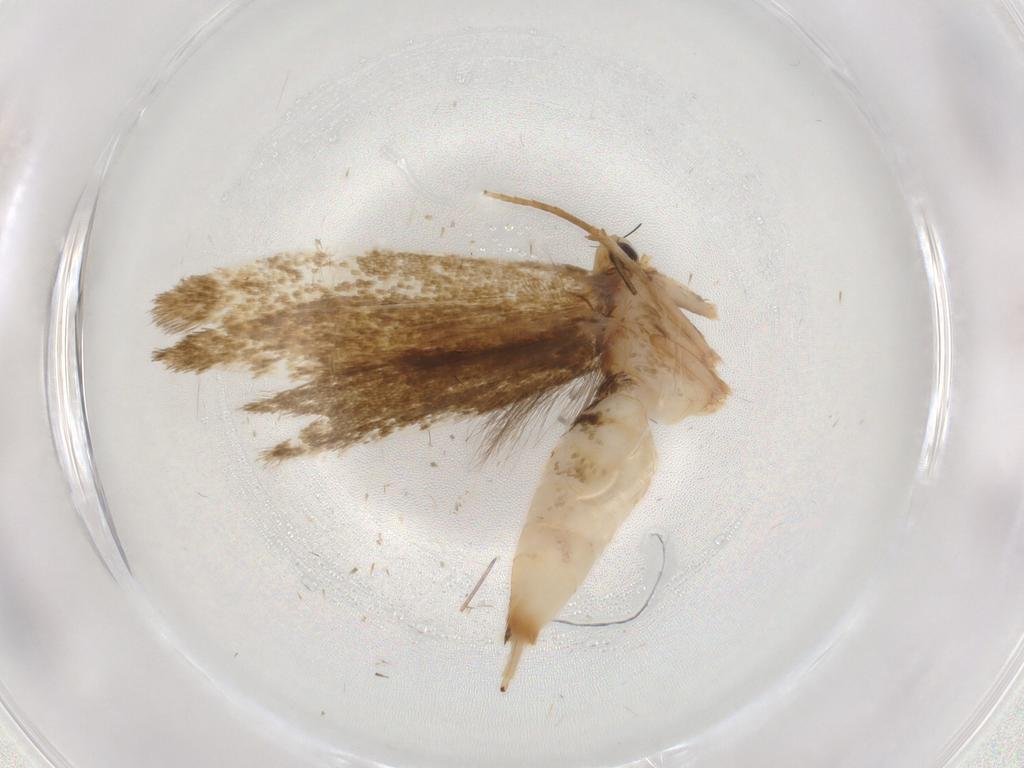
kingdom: Animalia
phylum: Arthropoda
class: Insecta
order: Lepidoptera
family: Tineidae
